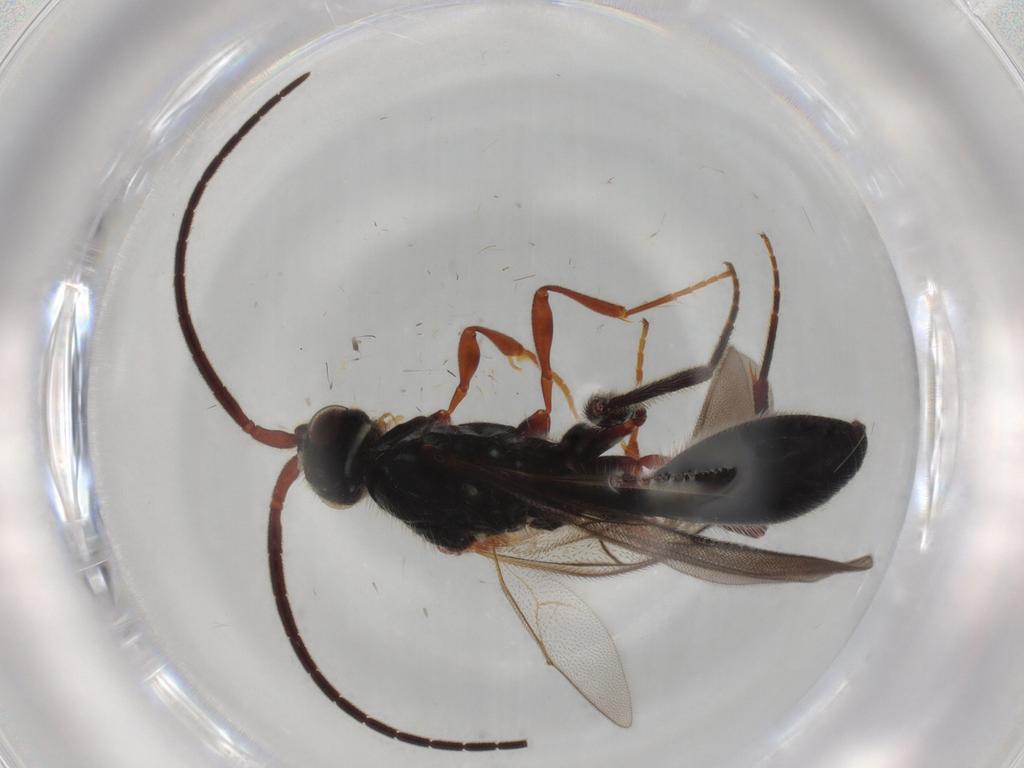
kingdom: Animalia
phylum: Arthropoda
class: Insecta
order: Hymenoptera
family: Diapriidae
